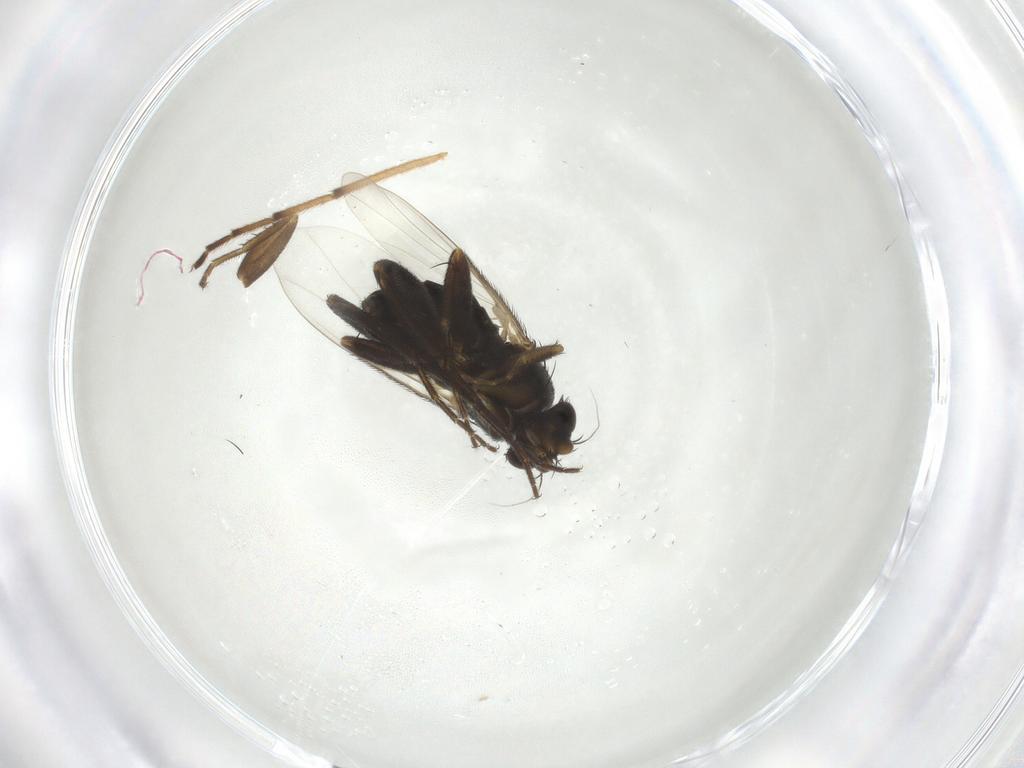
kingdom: Animalia
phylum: Arthropoda
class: Insecta
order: Diptera
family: Phoridae
